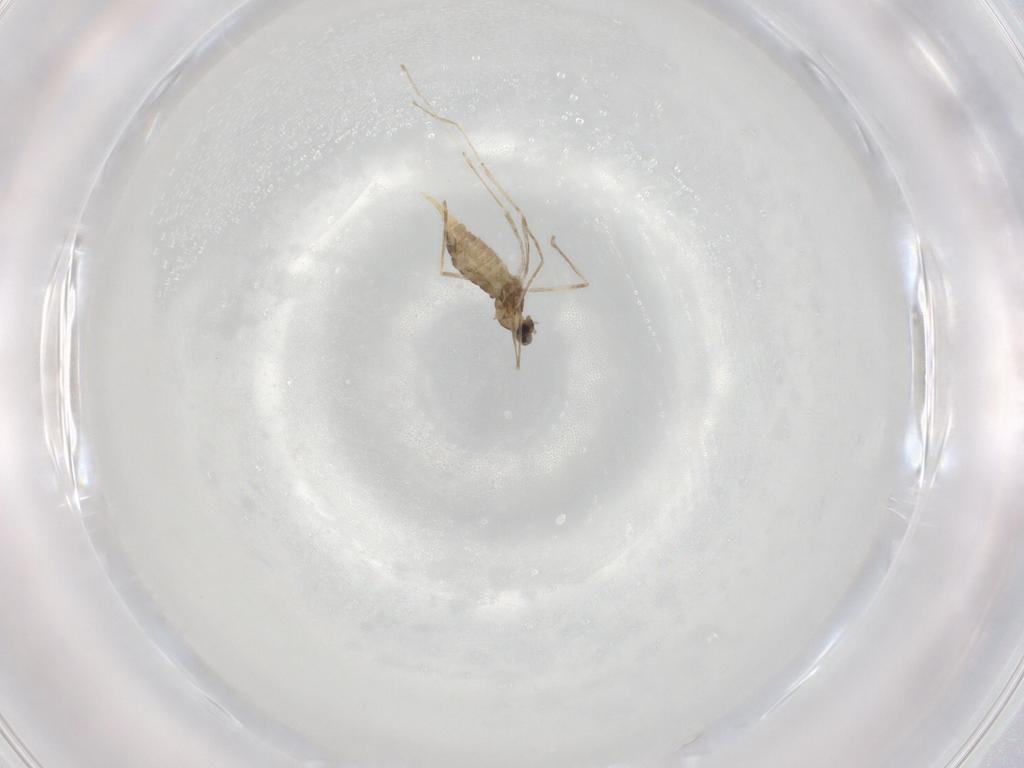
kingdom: Animalia
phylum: Arthropoda
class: Insecta
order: Diptera
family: Cecidomyiidae
